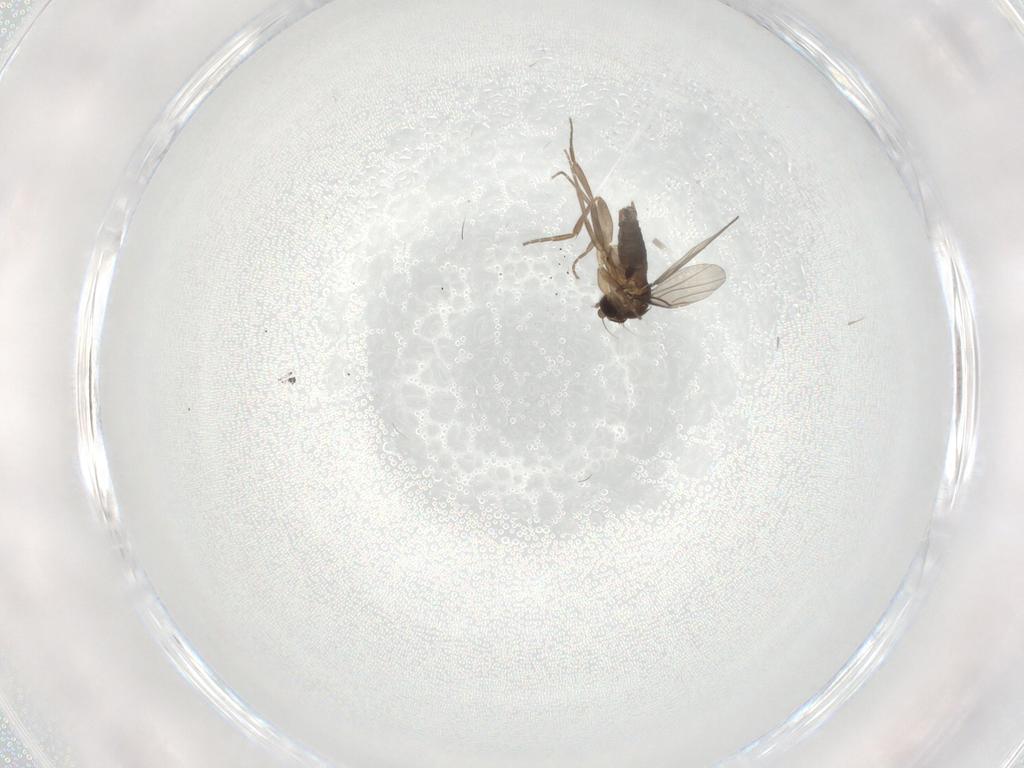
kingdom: Animalia
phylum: Arthropoda
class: Insecta
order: Diptera
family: Phoridae
